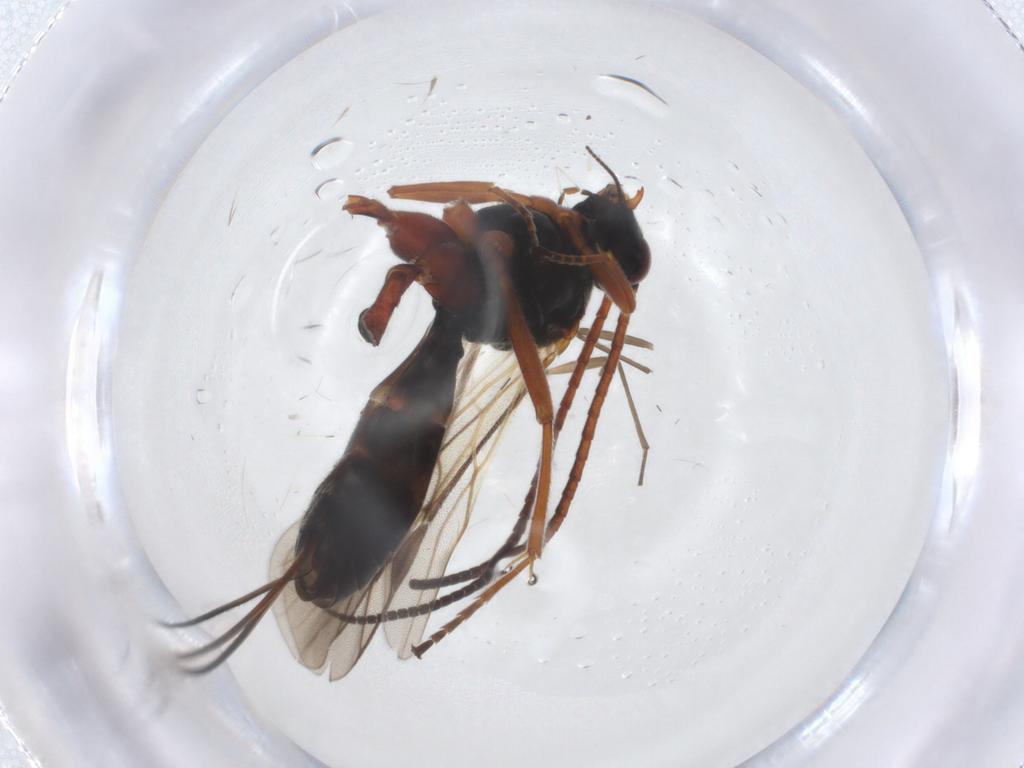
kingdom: Animalia
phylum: Arthropoda
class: Insecta
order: Hymenoptera
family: Braconidae
